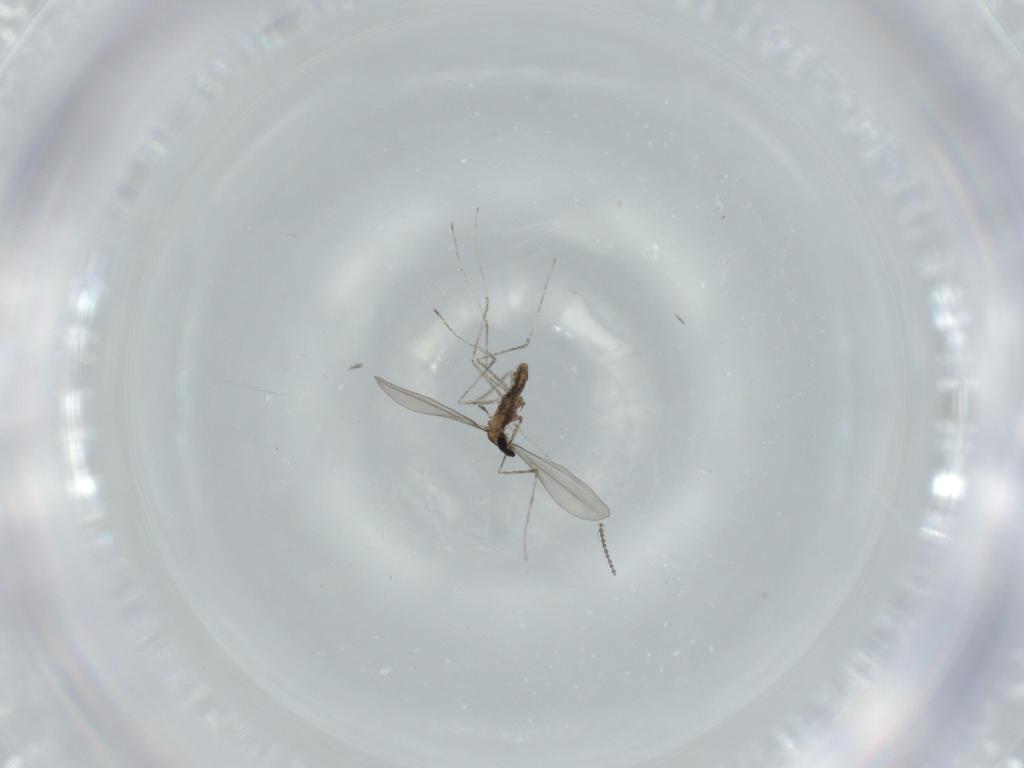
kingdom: Animalia
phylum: Arthropoda
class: Insecta
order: Diptera
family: Cecidomyiidae
